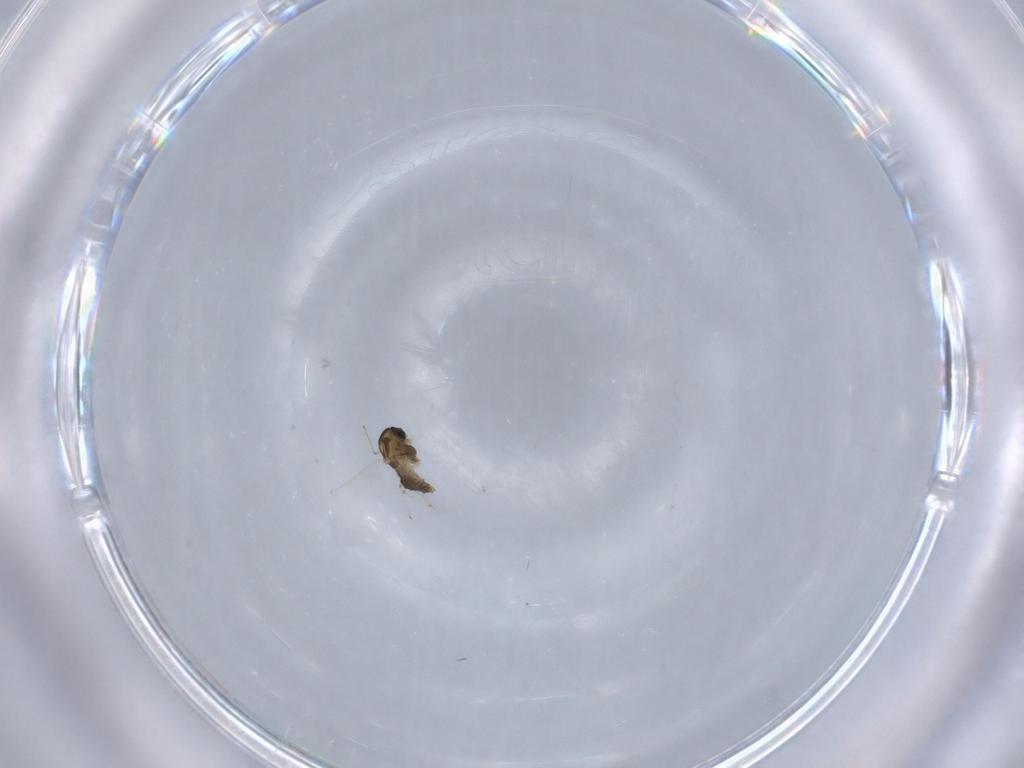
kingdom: Animalia
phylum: Arthropoda
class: Insecta
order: Diptera
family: Chironomidae
